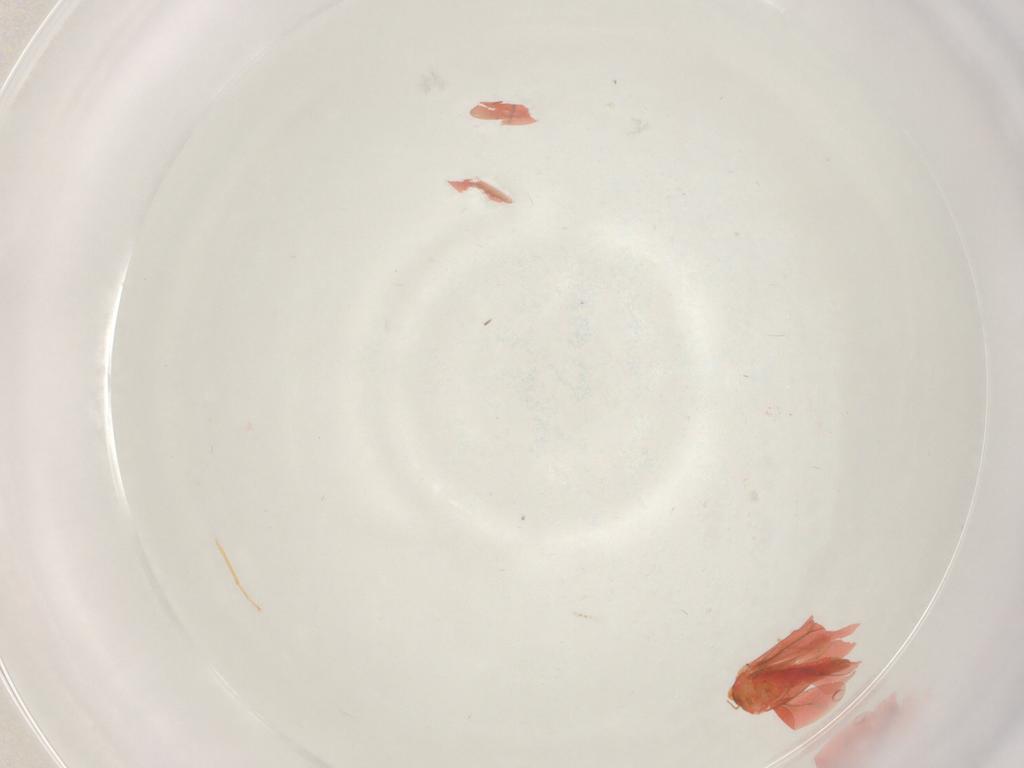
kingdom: Animalia
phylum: Arthropoda
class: Insecta
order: Hemiptera
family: Aleyrodidae
